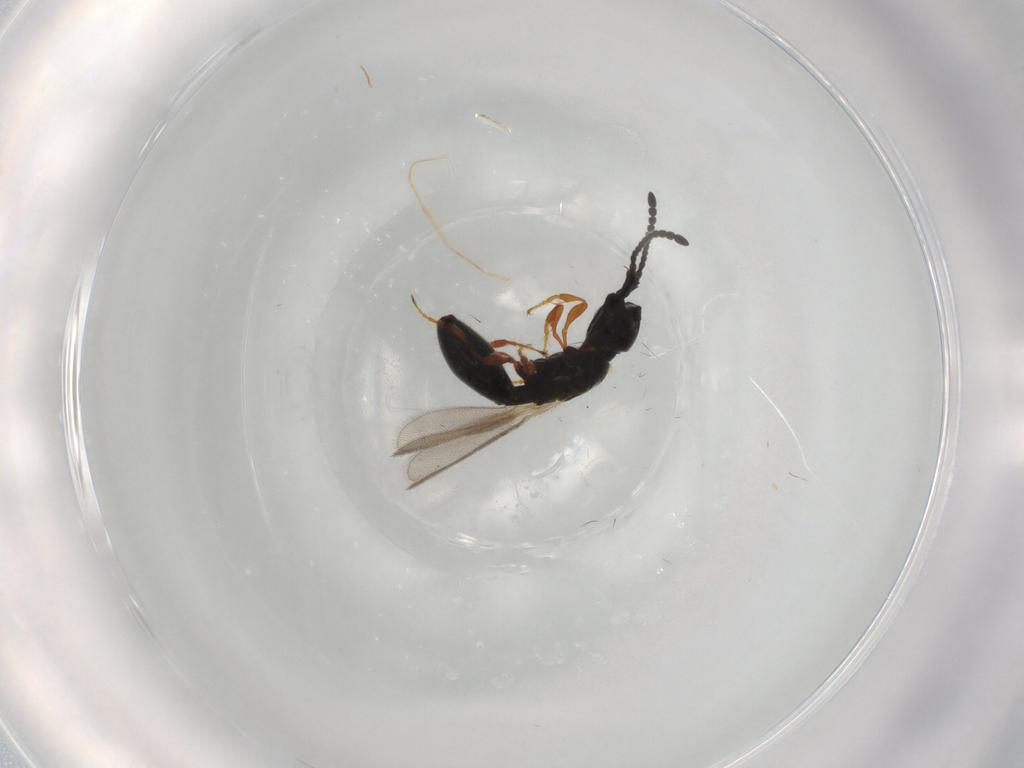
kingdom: Animalia
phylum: Arthropoda
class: Insecta
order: Hymenoptera
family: Diapriidae
